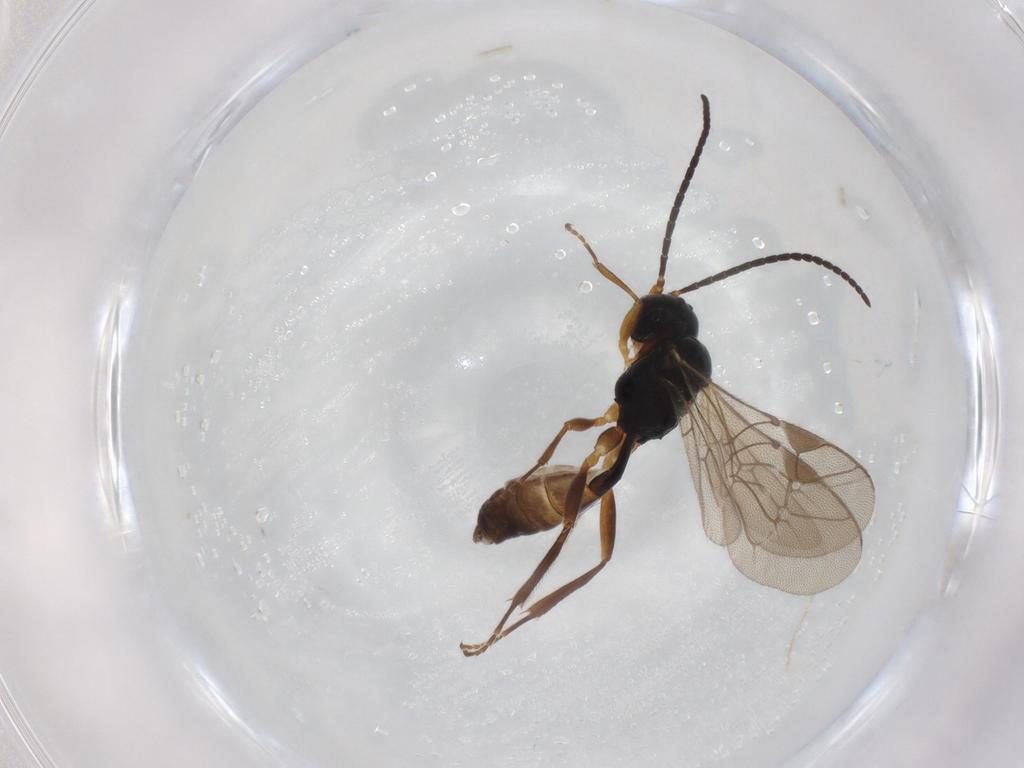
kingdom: Animalia
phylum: Arthropoda
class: Insecta
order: Hymenoptera
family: Ichneumonidae
